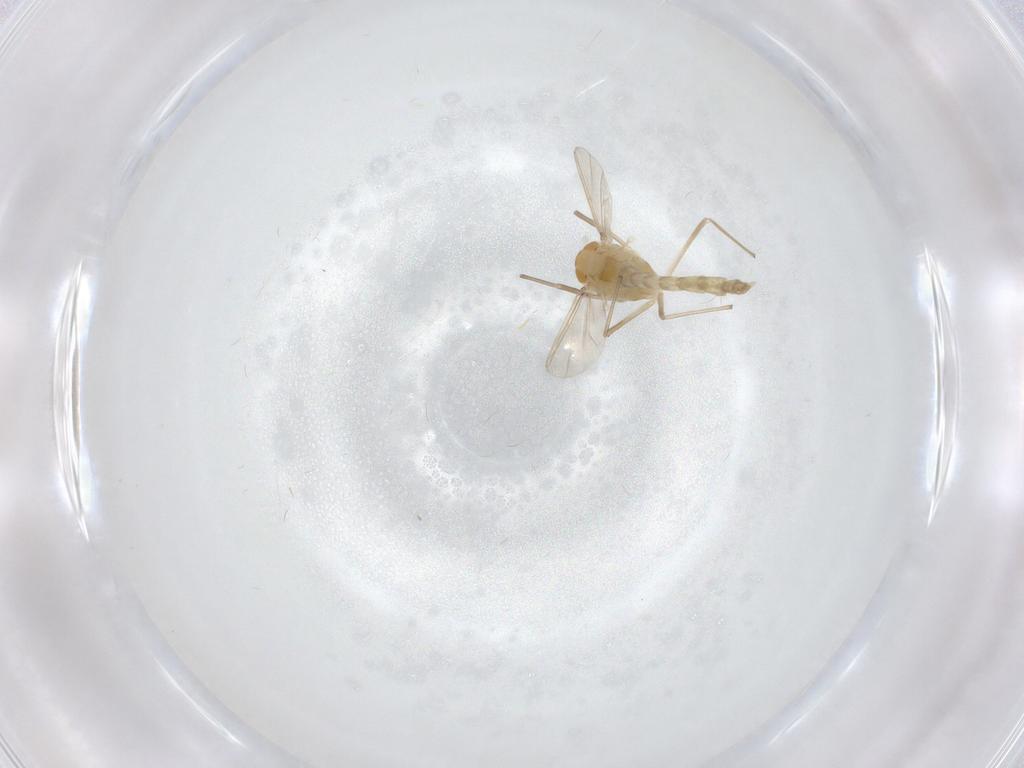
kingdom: Animalia
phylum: Arthropoda
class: Insecta
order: Diptera
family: Chironomidae
